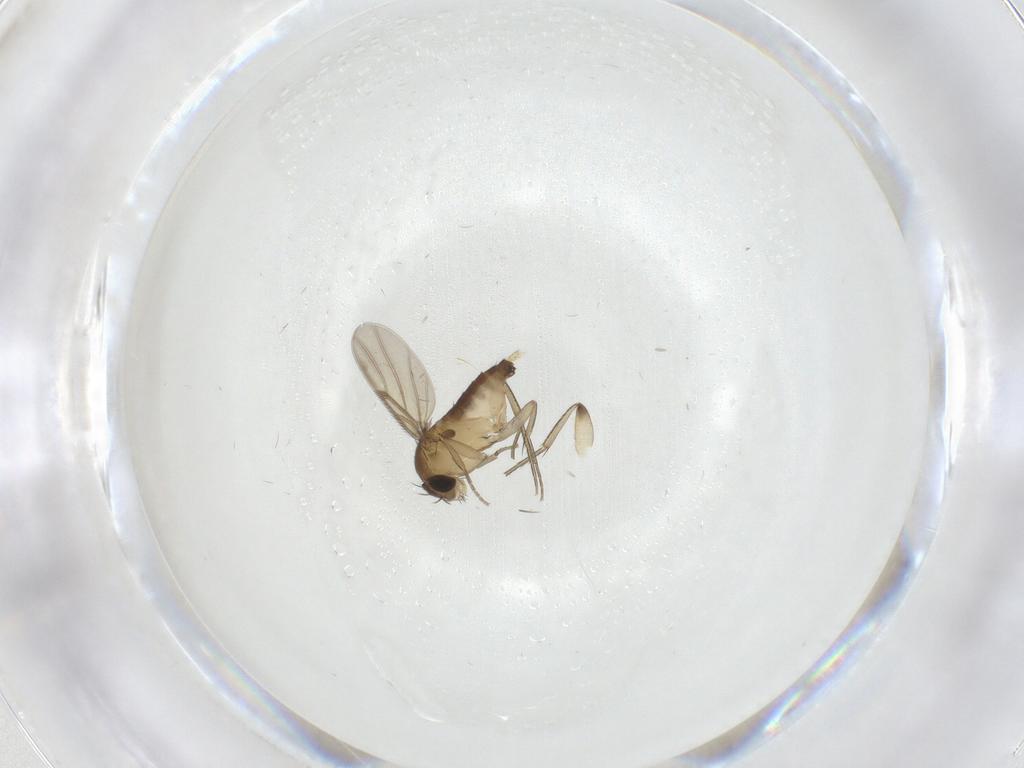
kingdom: Animalia
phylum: Arthropoda
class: Insecta
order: Diptera
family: Phoridae
